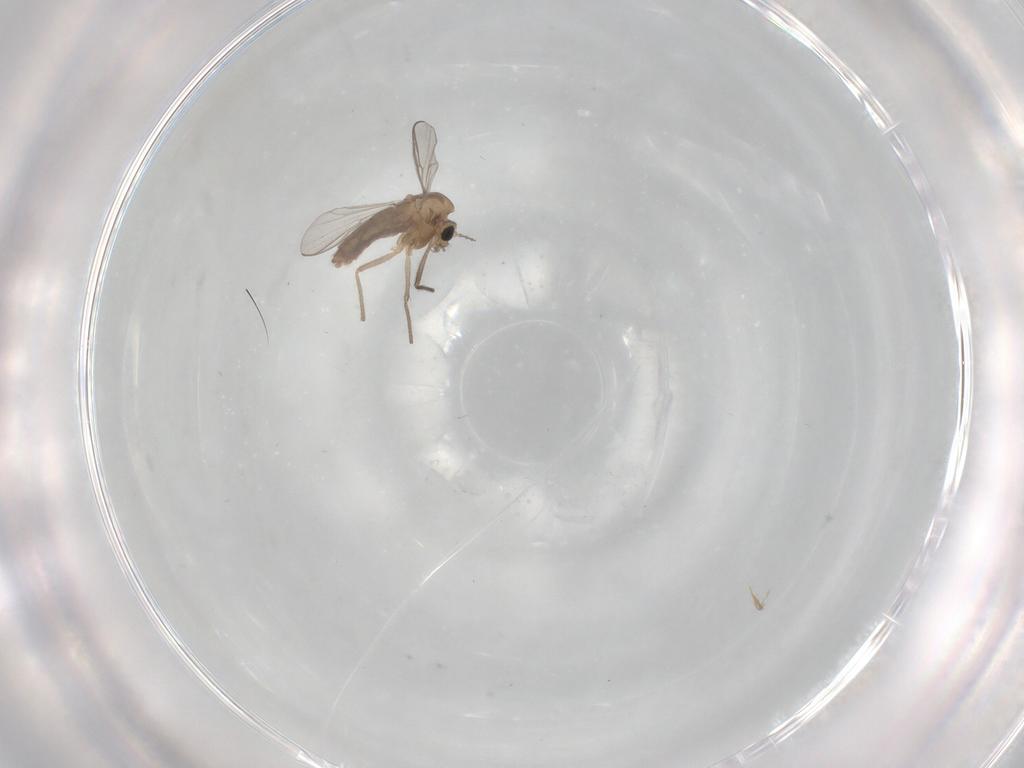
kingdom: Animalia
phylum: Arthropoda
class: Insecta
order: Diptera
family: Chironomidae
